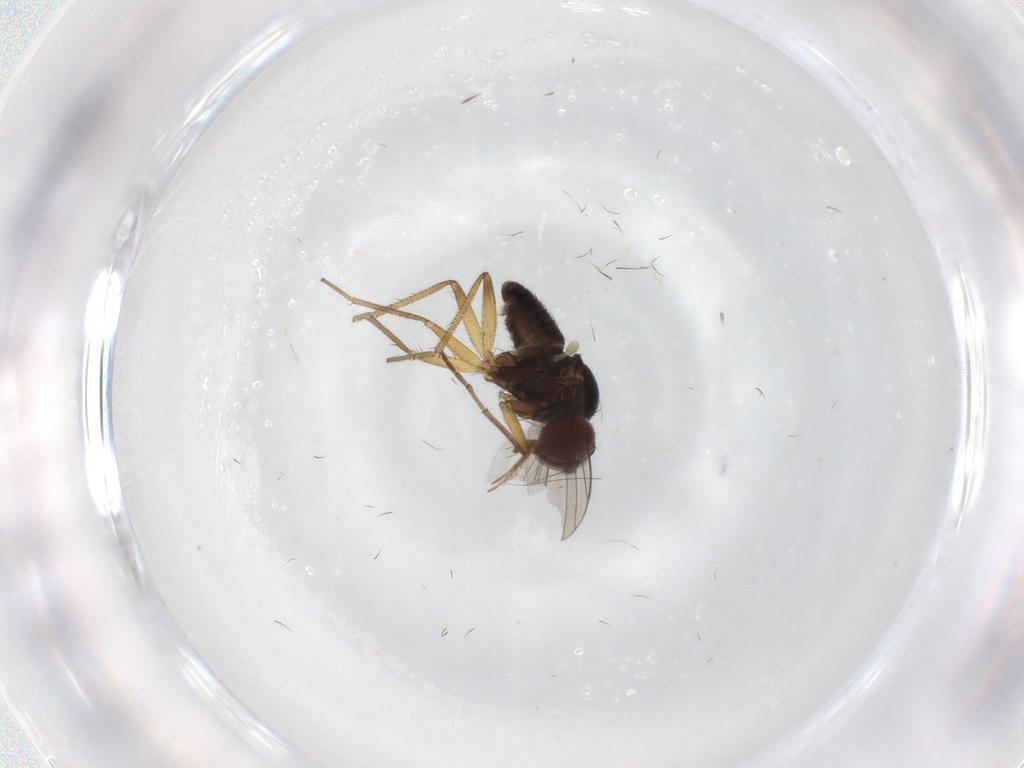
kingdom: Animalia
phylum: Arthropoda
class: Insecta
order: Diptera
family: Dolichopodidae
